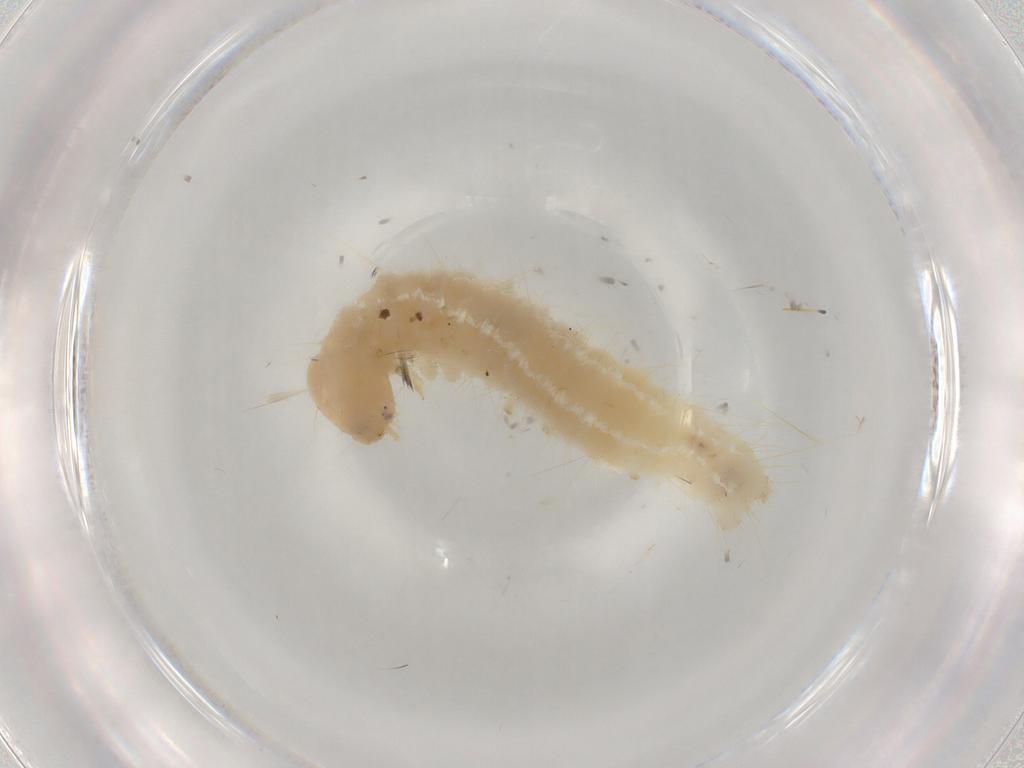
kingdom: Animalia
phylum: Arthropoda
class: Insecta
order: Lepidoptera
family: Crambidae
